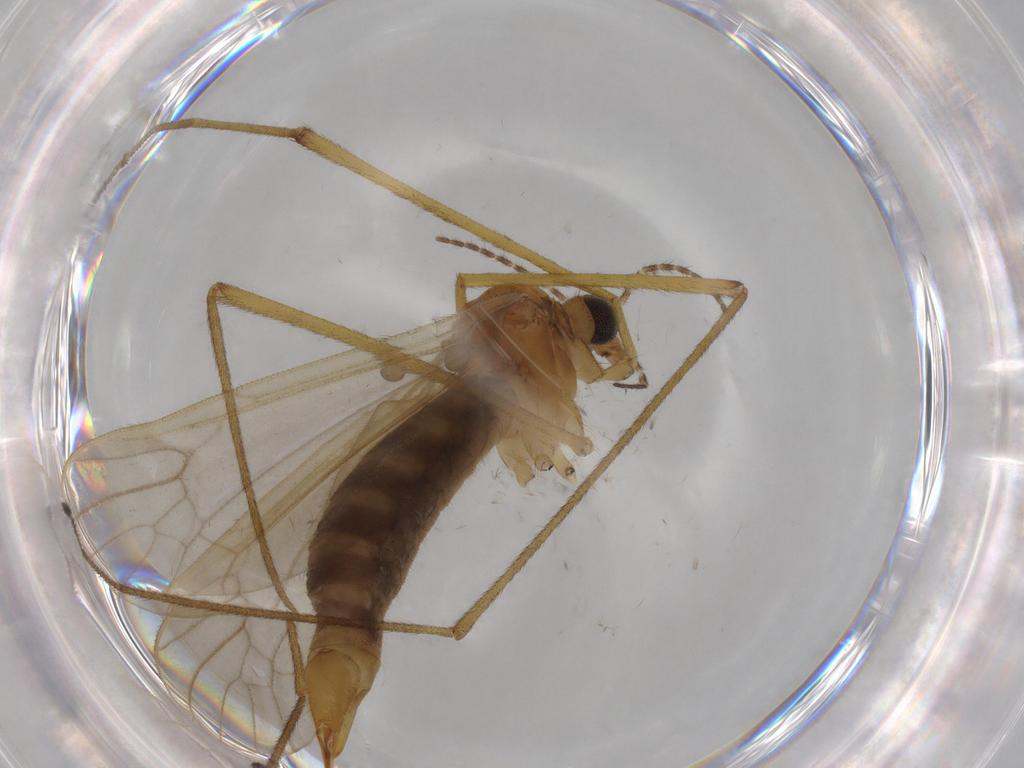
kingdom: Animalia
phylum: Arthropoda
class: Insecta
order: Diptera
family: Limoniidae
